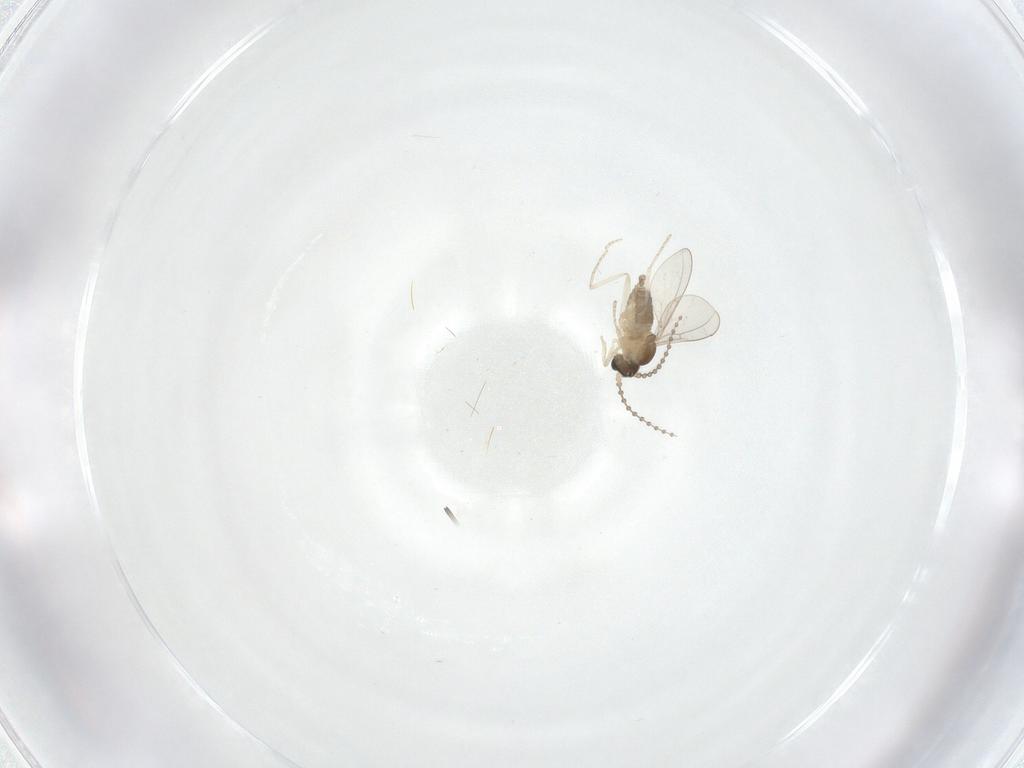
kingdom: Animalia
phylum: Arthropoda
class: Insecta
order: Diptera
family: Cecidomyiidae
